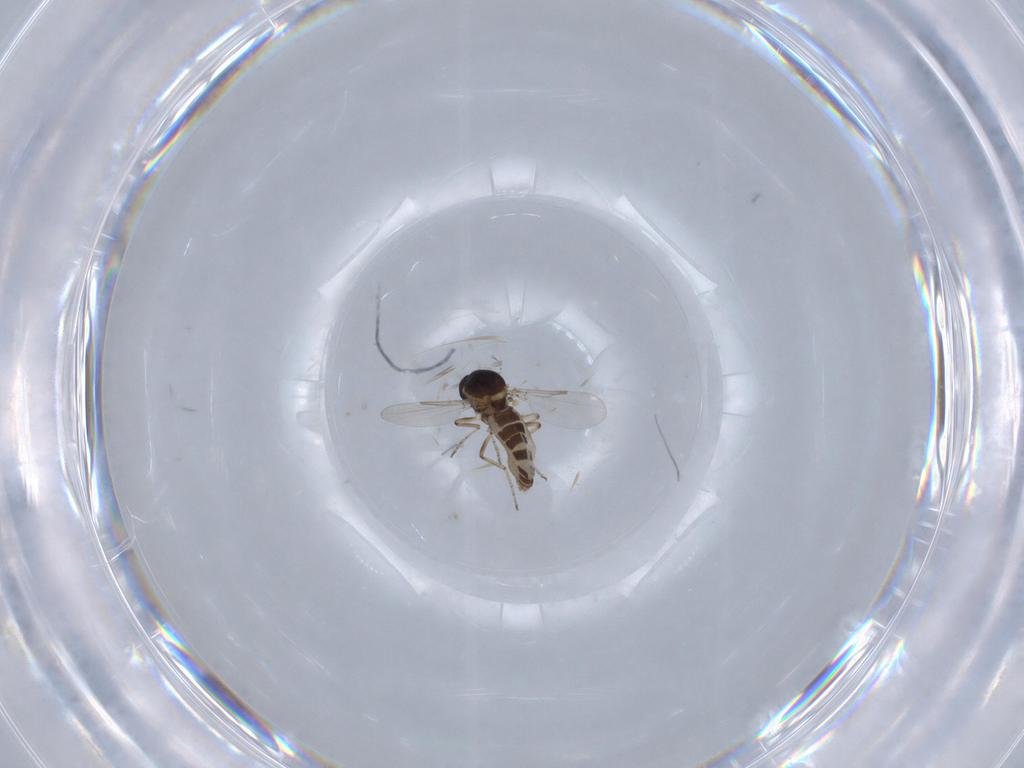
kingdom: Animalia
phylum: Arthropoda
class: Insecta
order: Diptera
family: Ceratopogonidae
